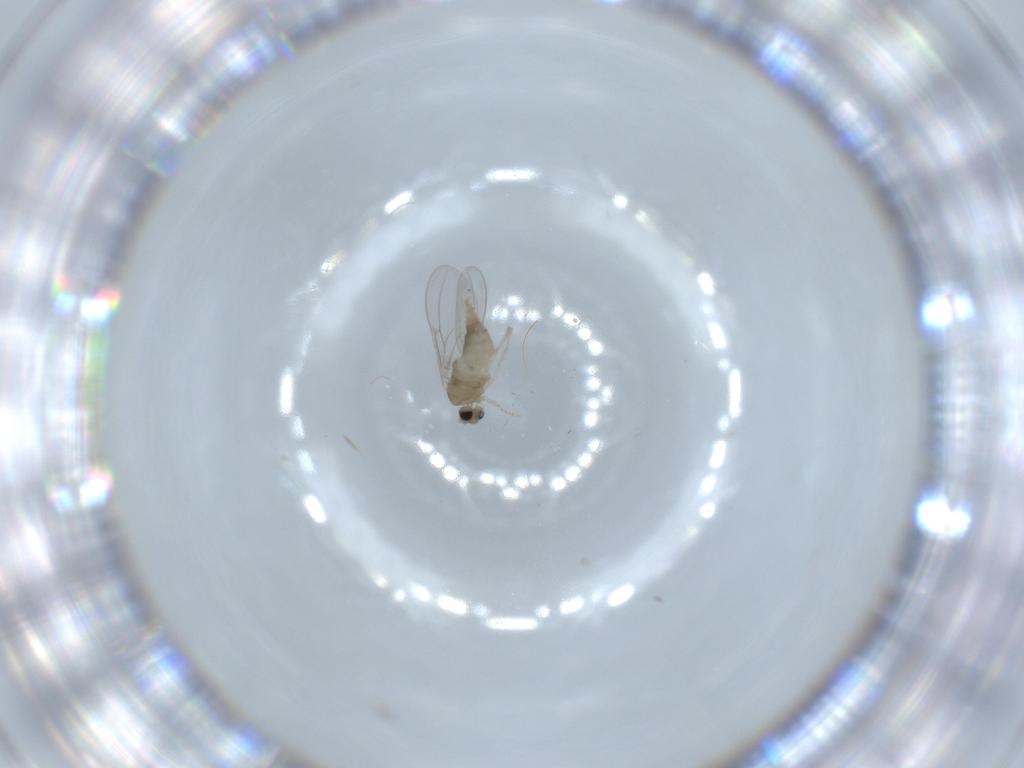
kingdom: Animalia
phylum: Arthropoda
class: Insecta
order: Diptera
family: Cecidomyiidae
